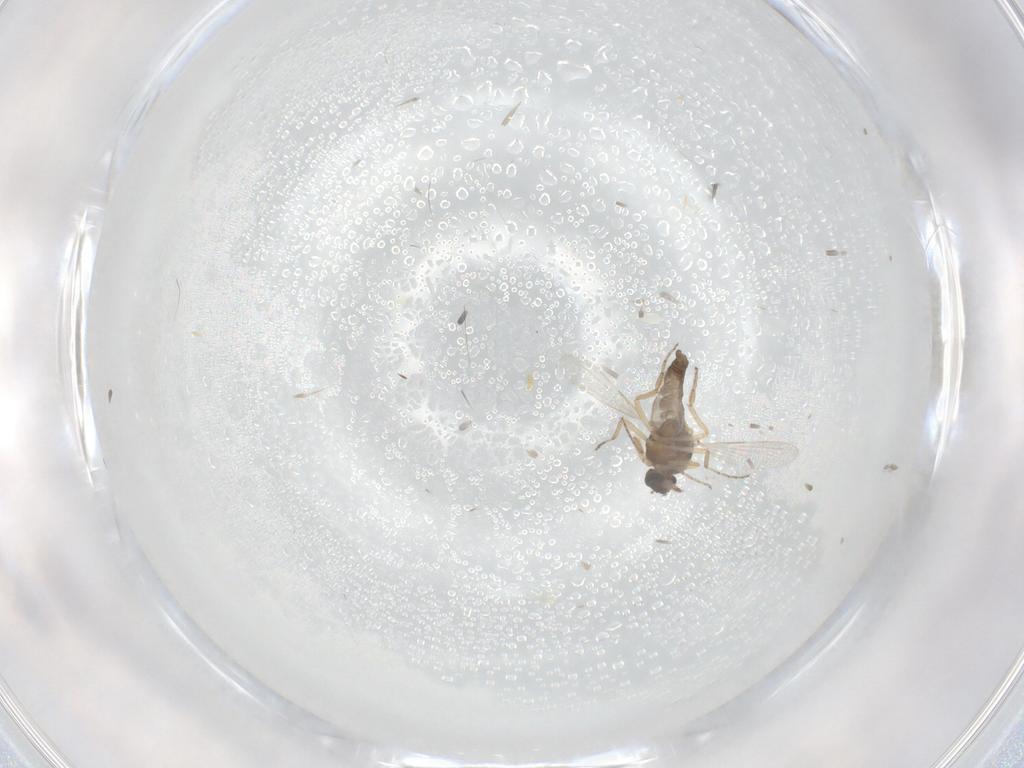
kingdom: Animalia
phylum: Arthropoda
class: Insecta
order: Diptera
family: Ceratopogonidae
